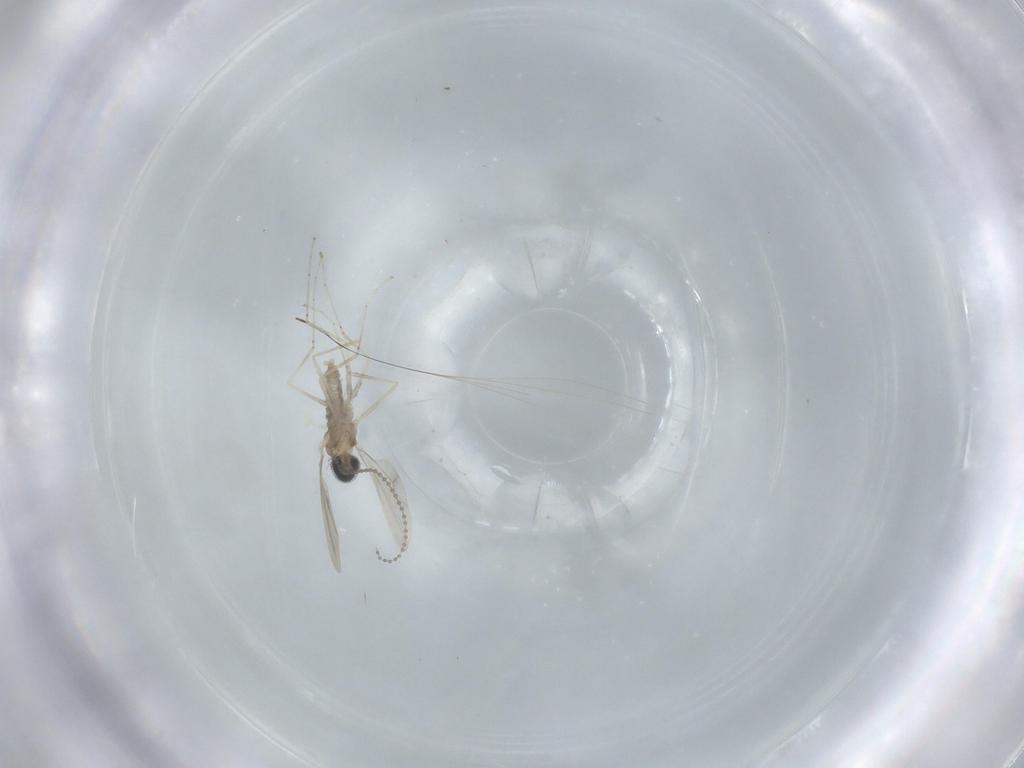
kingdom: Animalia
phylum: Arthropoda
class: Insecta
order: Diptera
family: Cecidomyiidae
